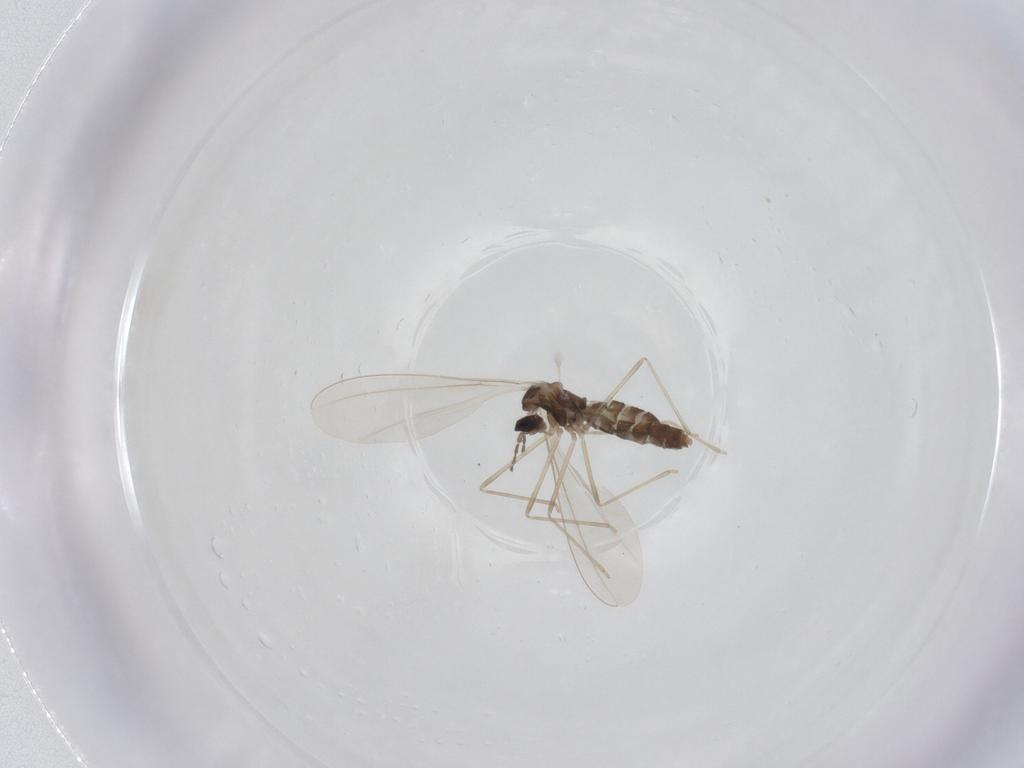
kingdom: Animalia
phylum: Arthropoda
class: Insecta
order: Diptera
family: Cecidomyiidae
